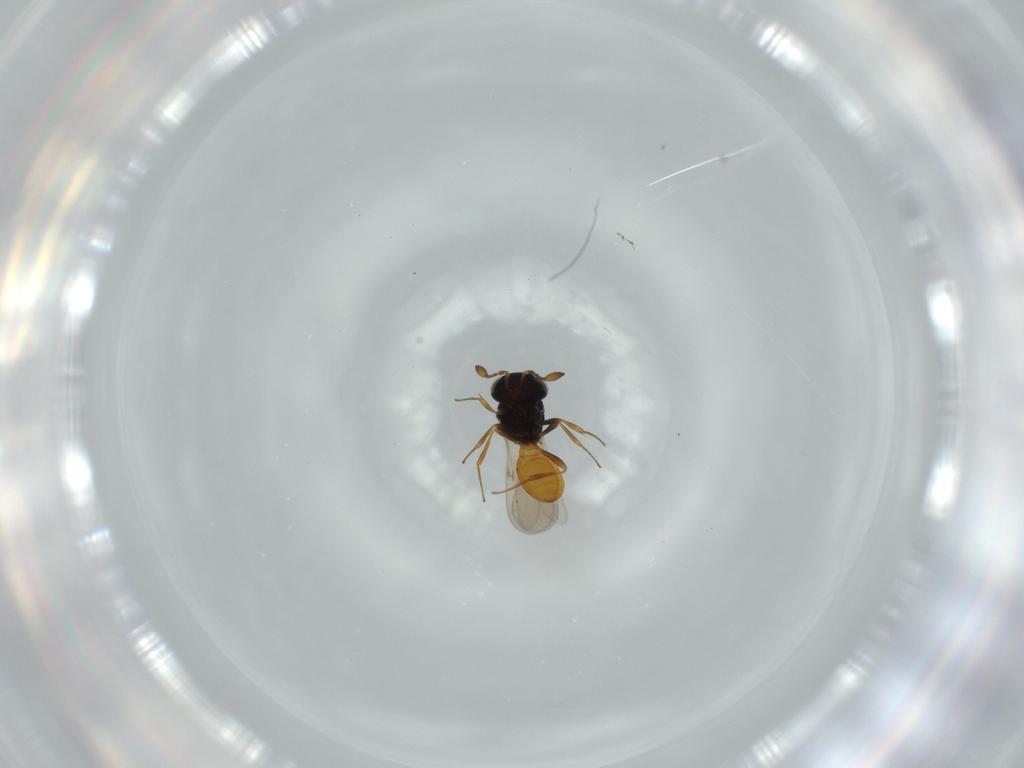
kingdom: Animalia
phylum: Arthropoda
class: Insecta
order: Hymenoptera
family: Scelionidae
